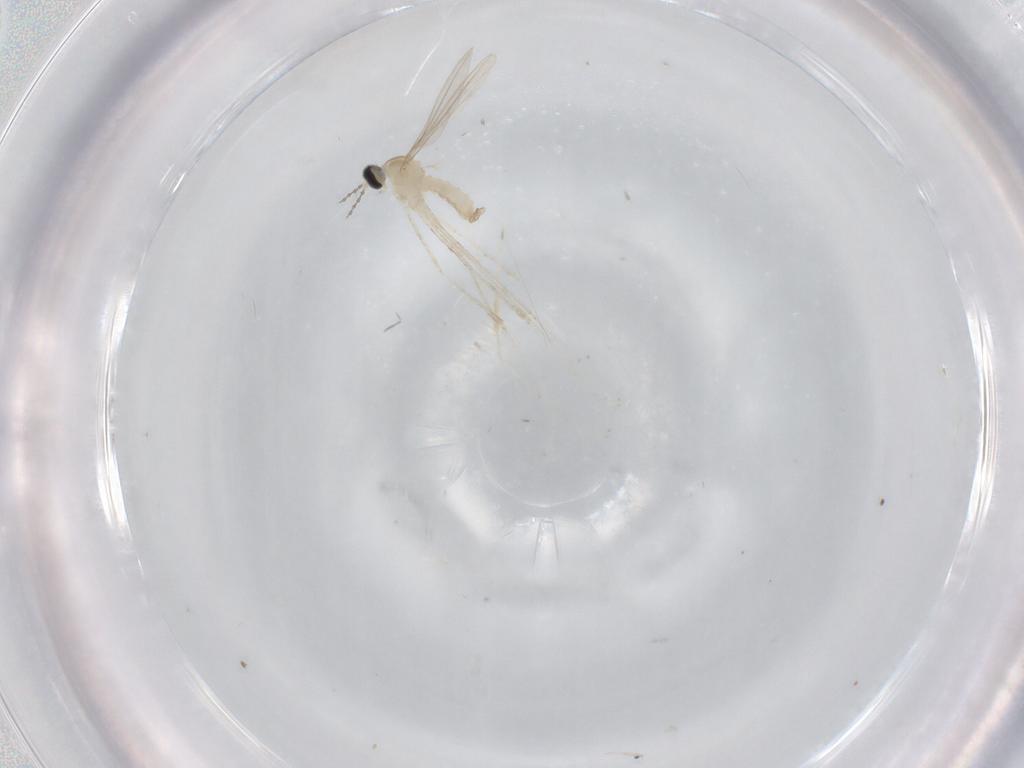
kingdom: Animalia
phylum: Arthropoda
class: Insecta
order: Diptera
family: Cecidomyiidae
